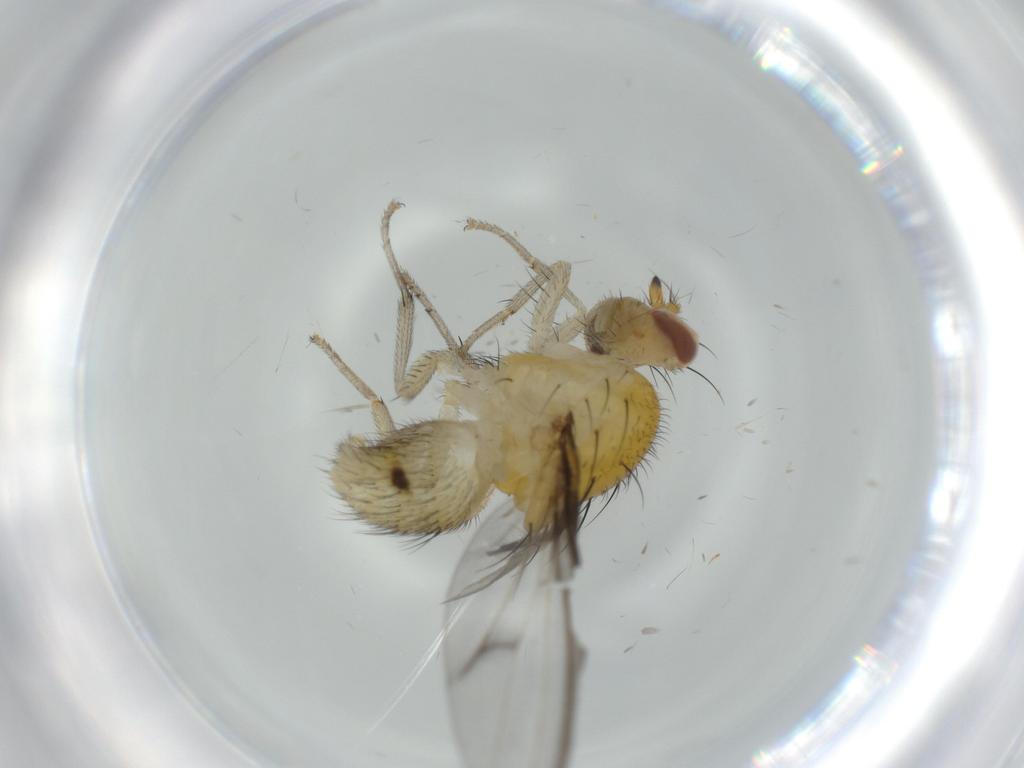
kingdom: Animalia
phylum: Arthropoda
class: Insecta
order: Diptera
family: Lauxaniidae
